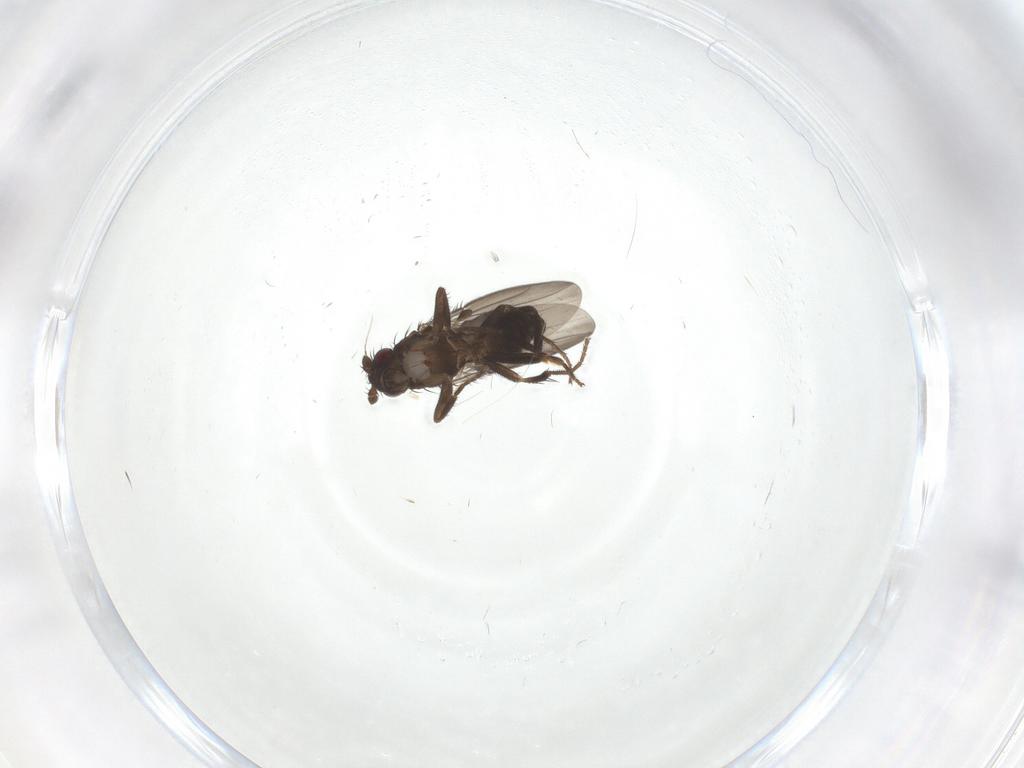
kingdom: Animalia
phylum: Arthropoda
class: Insecta
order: Diptera
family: Sphaeroceridae
